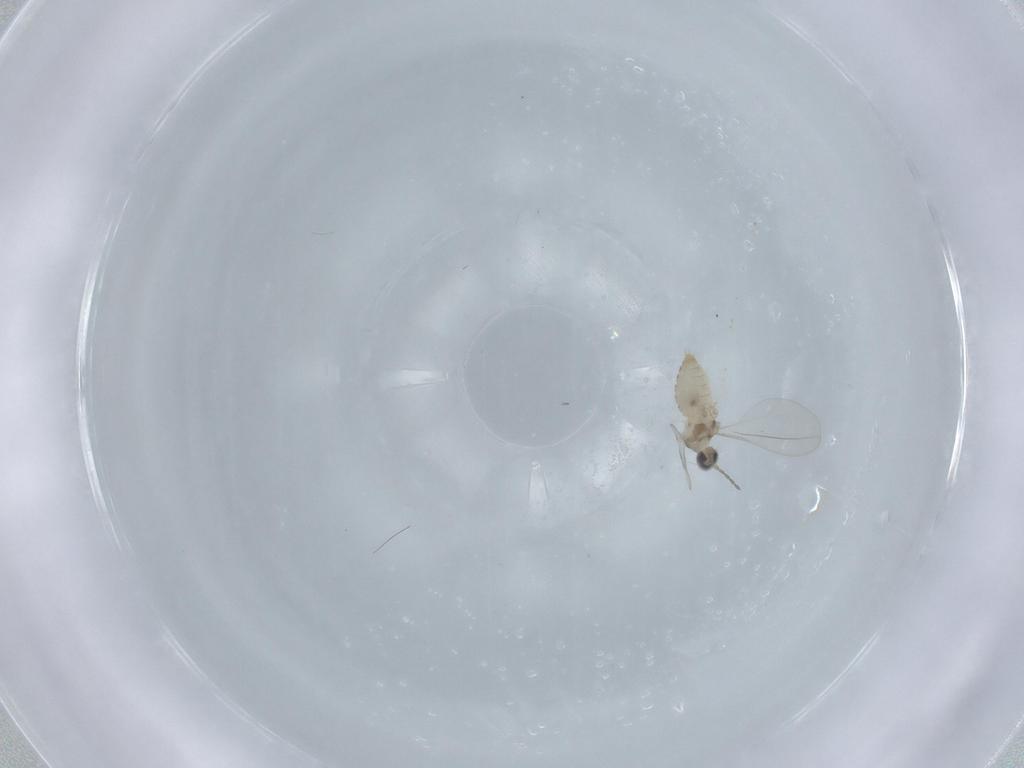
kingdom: Animalia
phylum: Arthropoda
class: Insecta
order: Diptera
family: Cecidomyiidae
